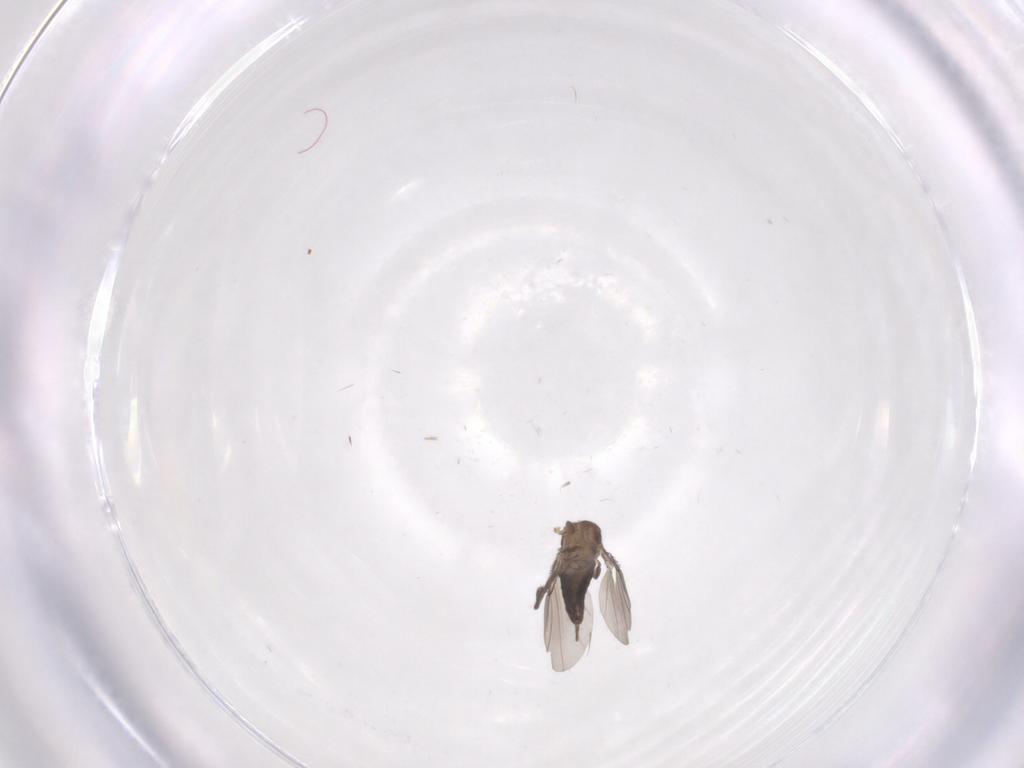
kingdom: Animalia
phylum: Arthropoda
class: Insecta
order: Diptera
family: Phoridae
